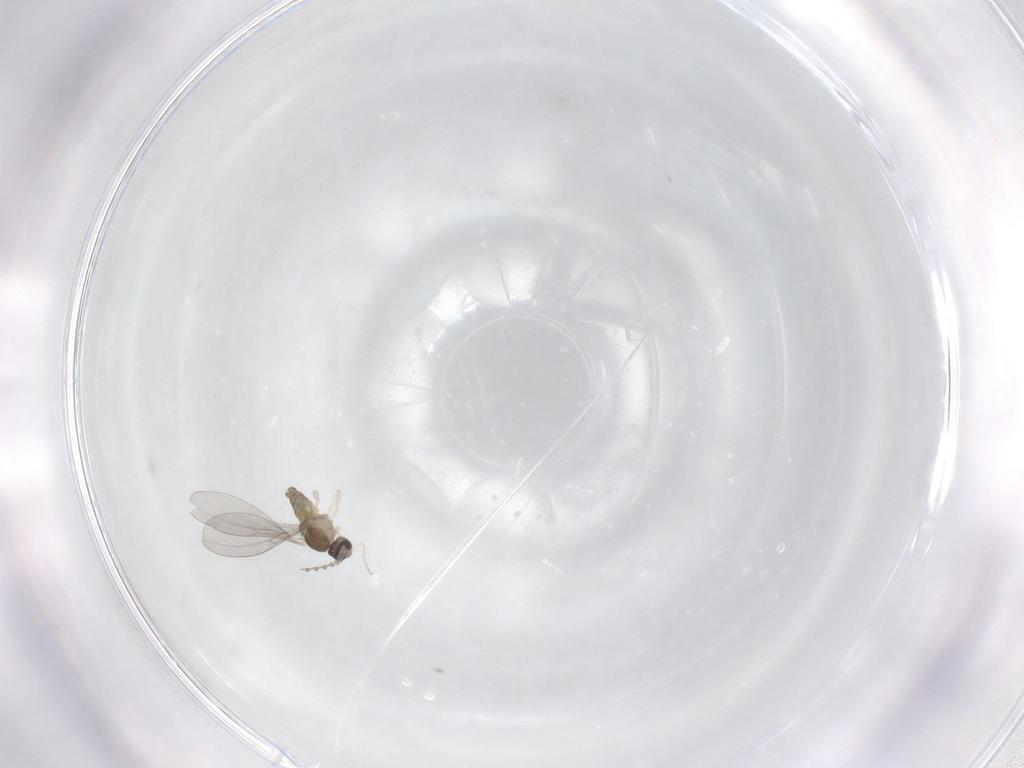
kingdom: Animalia
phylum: Arthropoda
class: Insecta
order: Diptera
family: Cecidomyiidae
